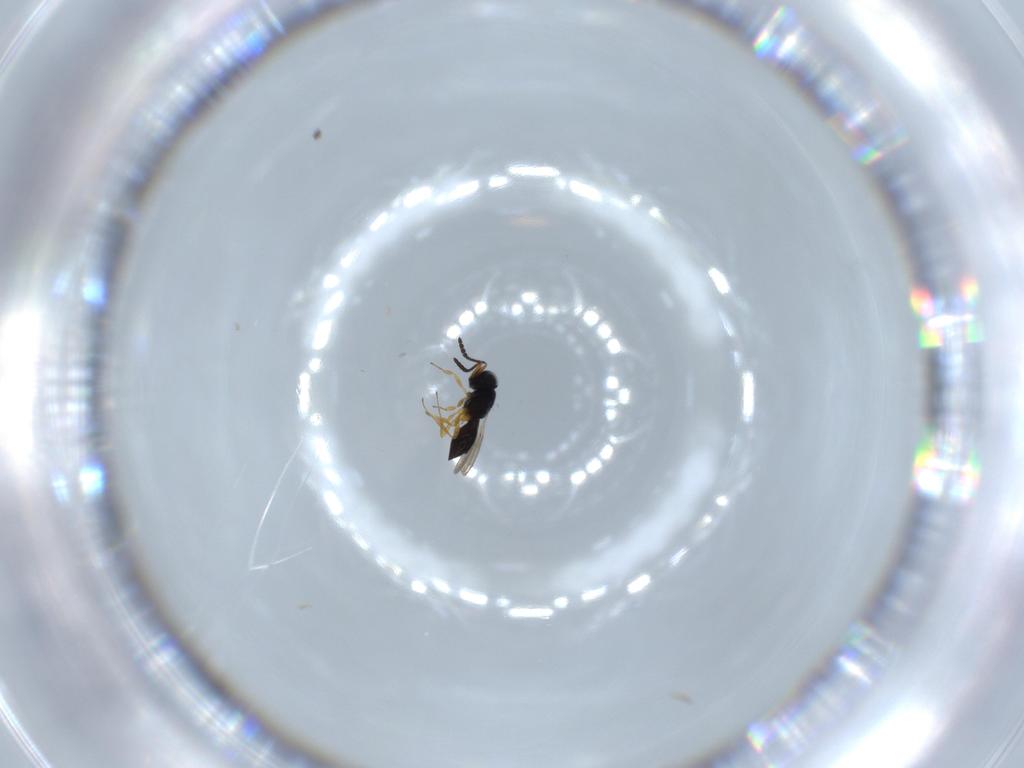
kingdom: Animalia
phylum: Arthropoda
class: Insecta
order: Hymenoptera
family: Scelionidae
